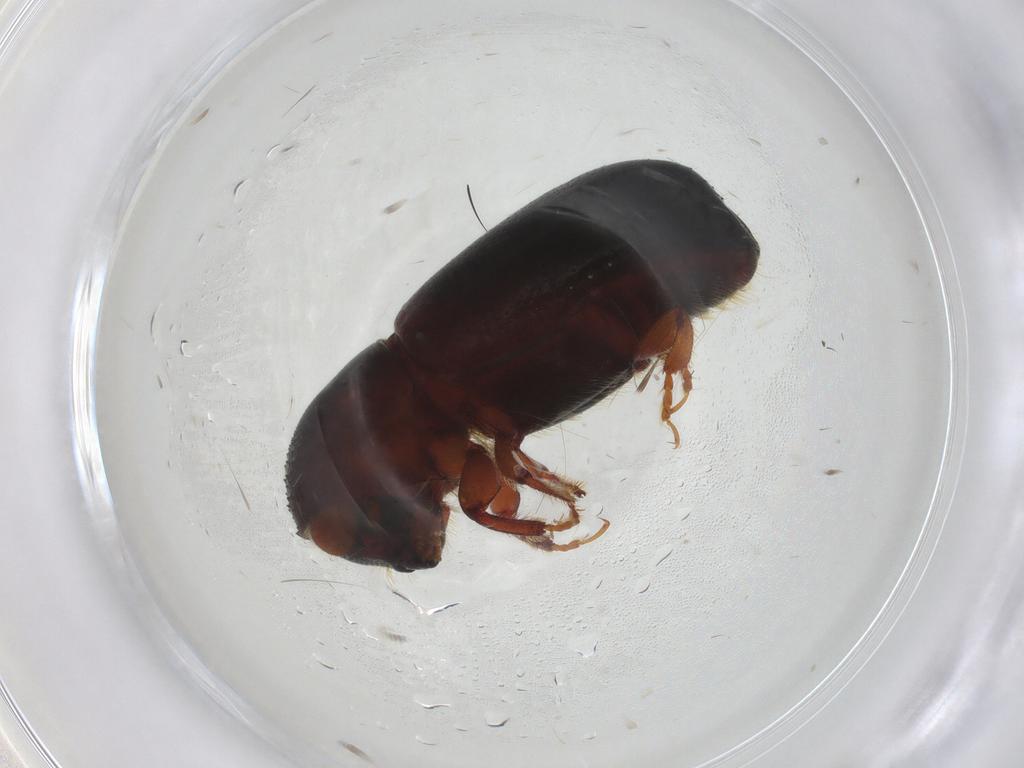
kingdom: Animalia
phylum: Arthropoda
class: Insecta
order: Coleoptera
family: Curculionidae
